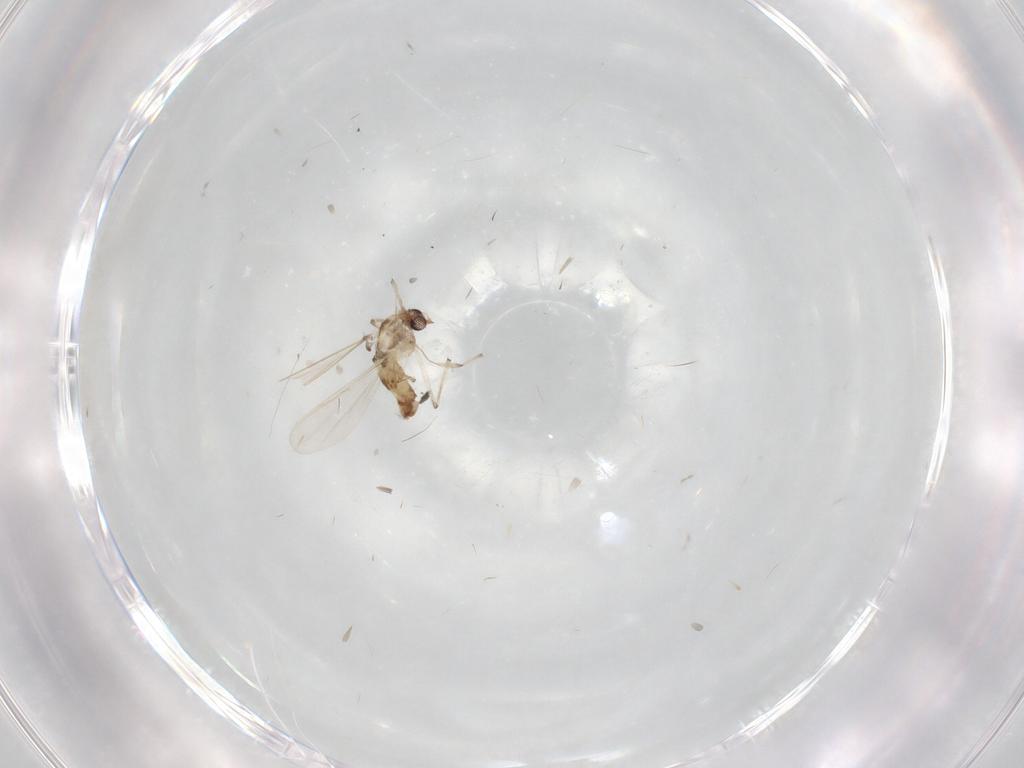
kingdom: Animalia
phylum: Arthropoda
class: Insecta
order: Diptera
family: Chironomidae
